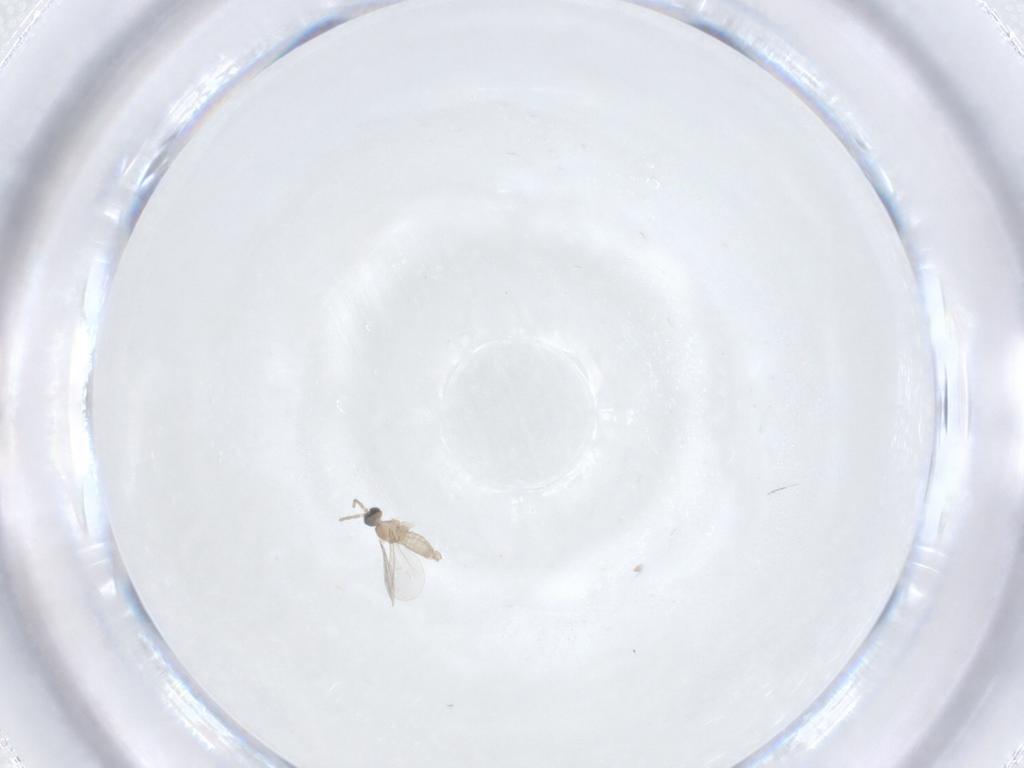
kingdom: Animalia
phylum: Arthropoda
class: Insecta
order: Diptera
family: Cecidomyiidae
